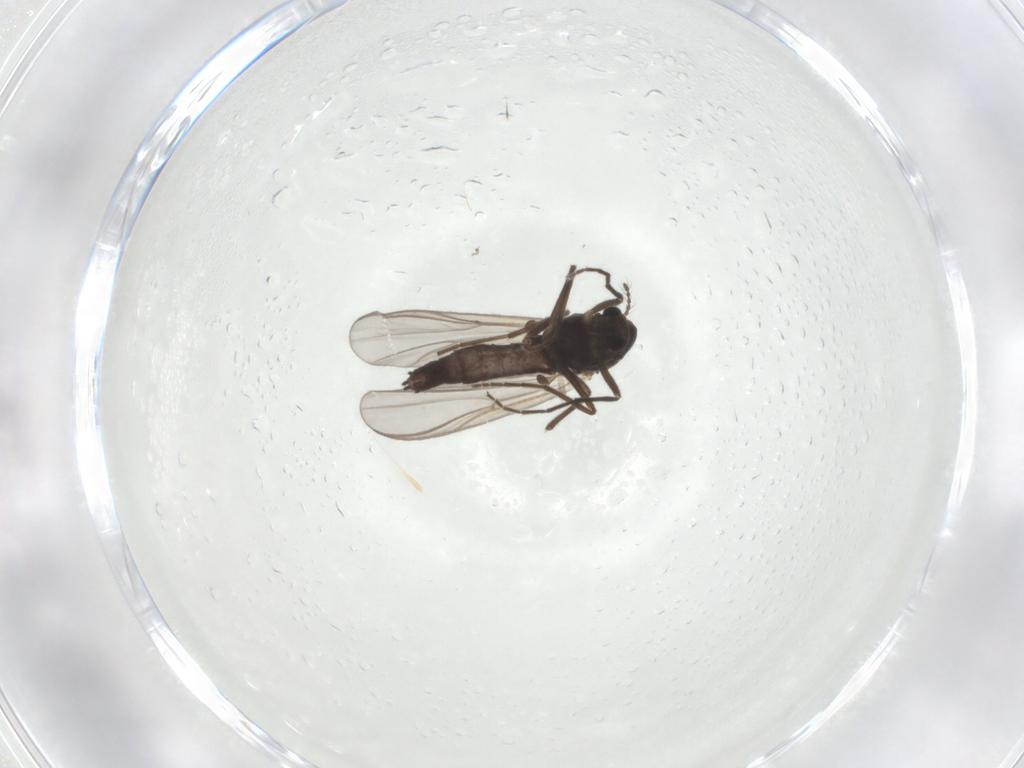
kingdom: Animalia
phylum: Arthropoda
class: Insecta
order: Diptera
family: Chironomidae
